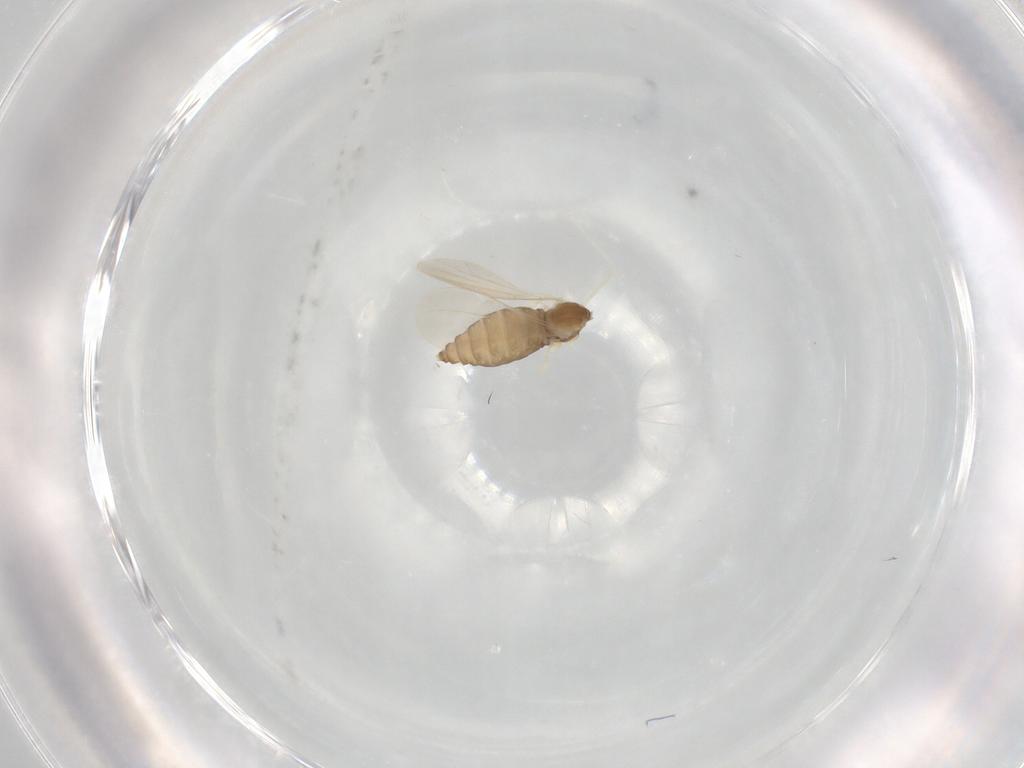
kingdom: Animalia
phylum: Arthropoda
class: Insecta
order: Diptera
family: Cecidomyiidae
